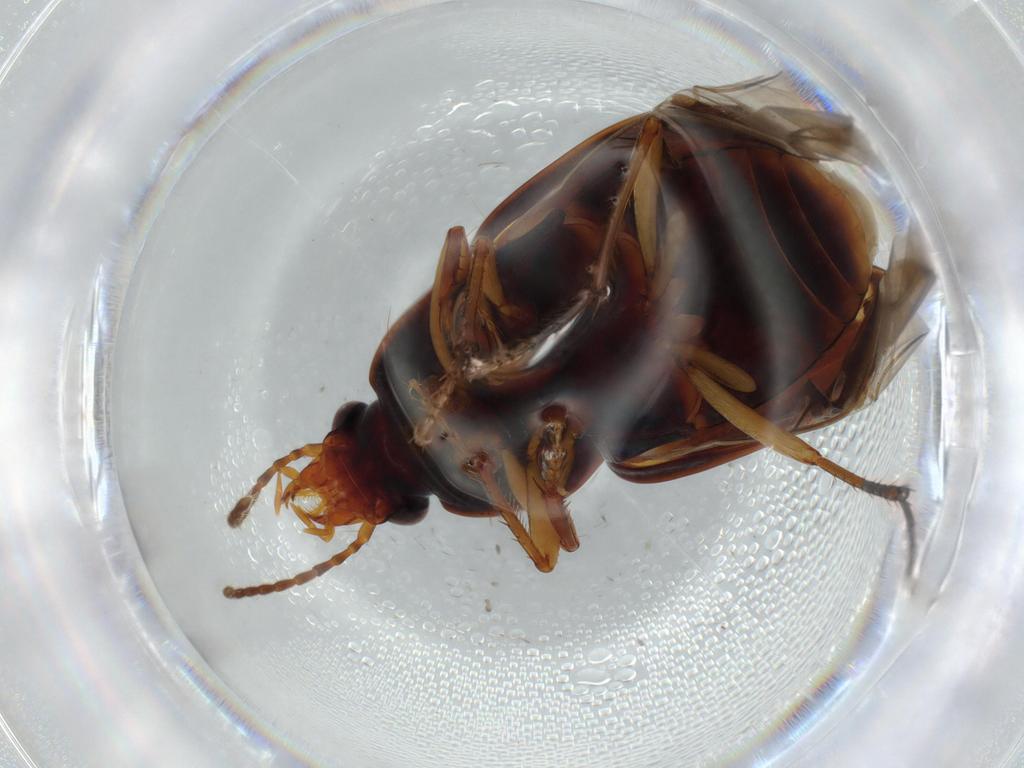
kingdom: Animalia
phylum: Arthropoda
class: Insecta
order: Coleoptera
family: Carabidae
